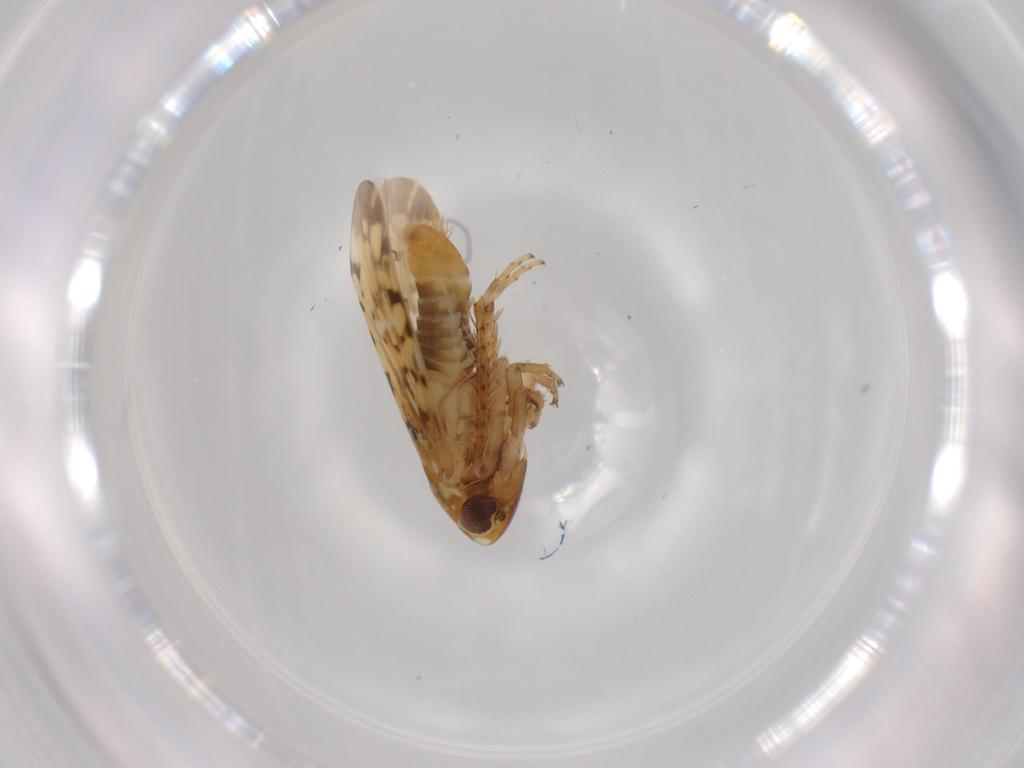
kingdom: Animalia
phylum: Arthropoda
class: Insecta
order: Hemiptera
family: Cicadellidae
